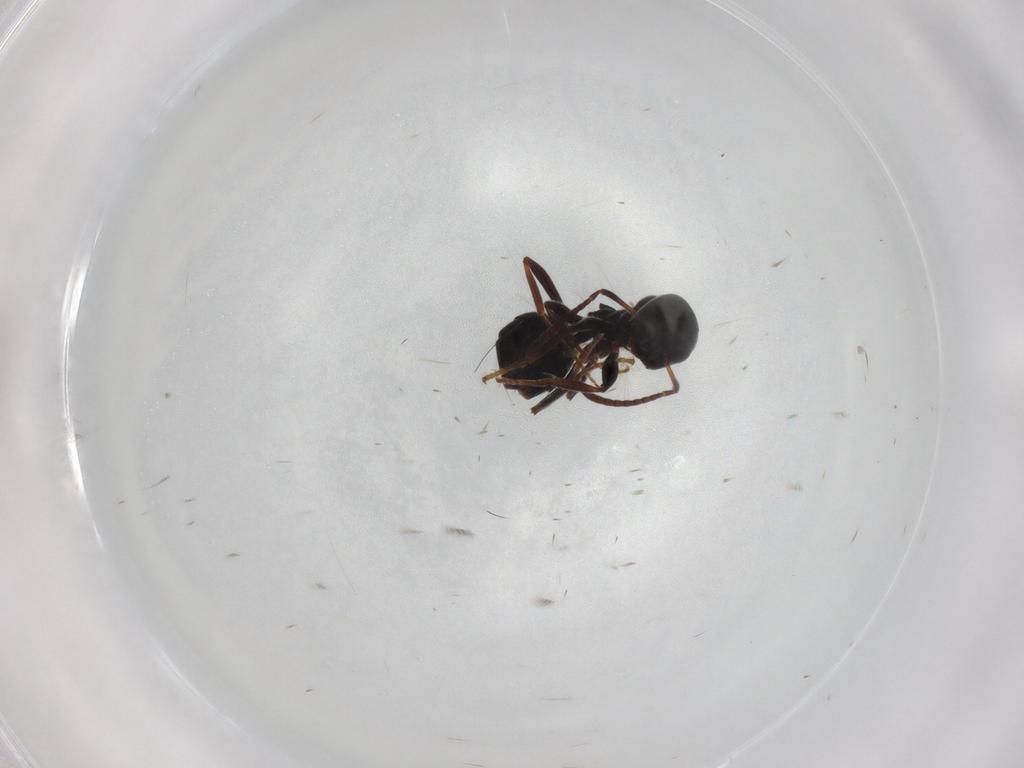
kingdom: Animalia
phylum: Arthropoda
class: Insecta
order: Hymenoptera
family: Formicidae
